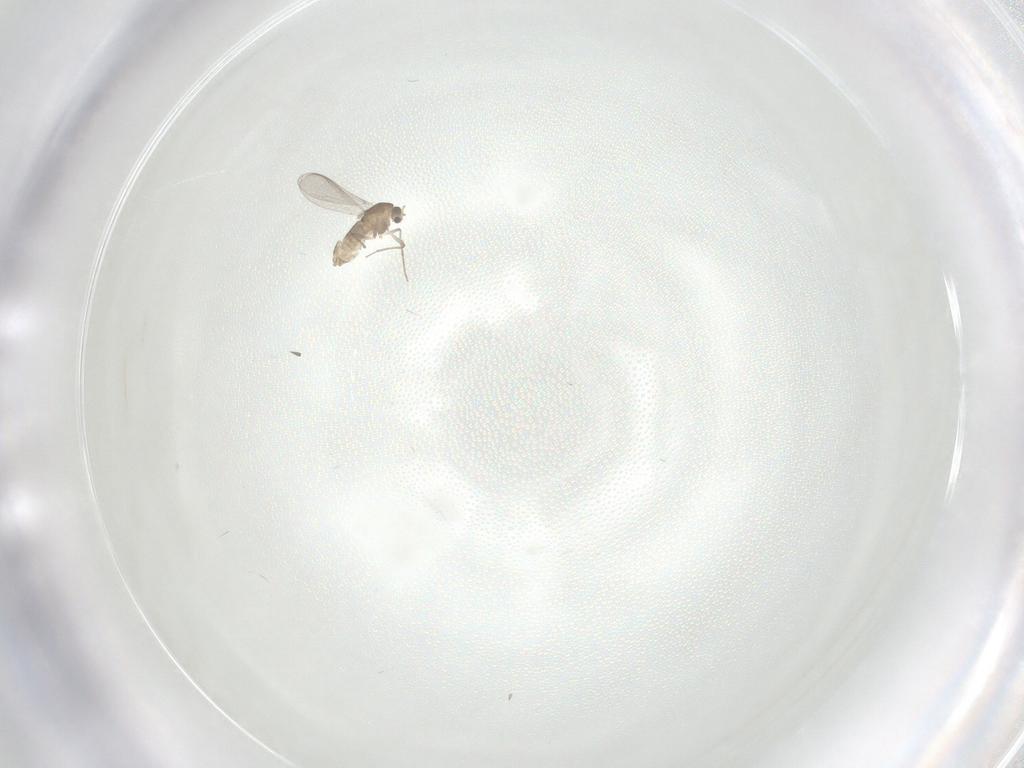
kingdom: Animalia
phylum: Arthropoda
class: Insecta
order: Diptera
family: Chironomidae
